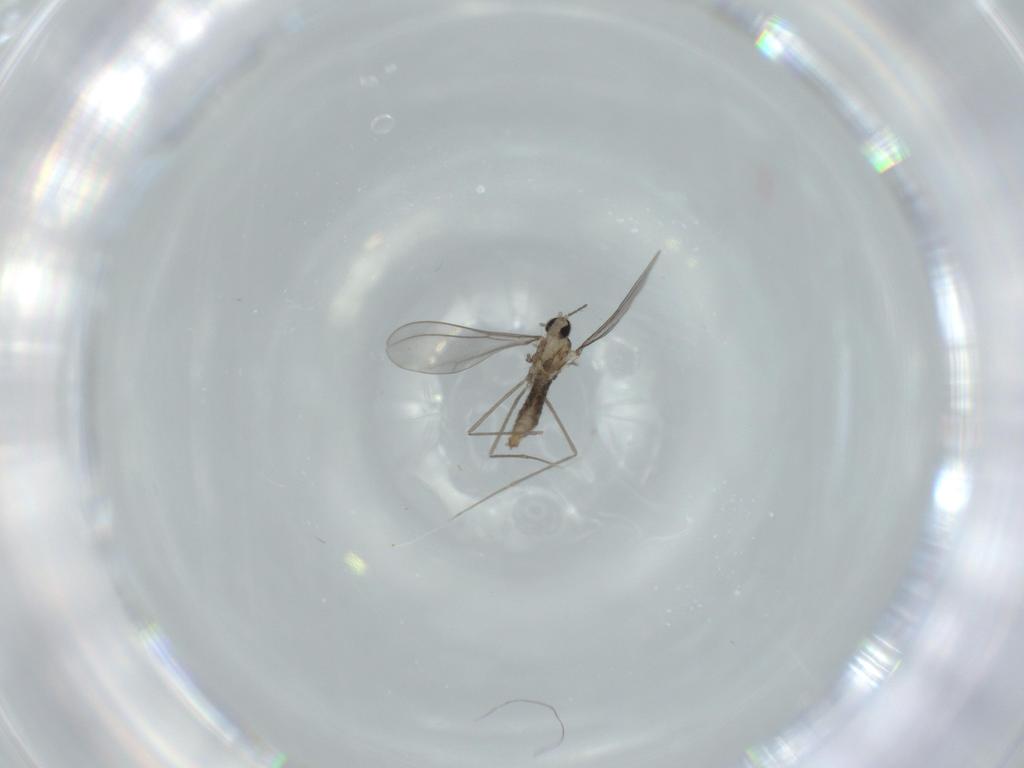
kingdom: Animalia
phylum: Arthropoda
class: Insecta
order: Diptera
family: Cecidomyiidae
